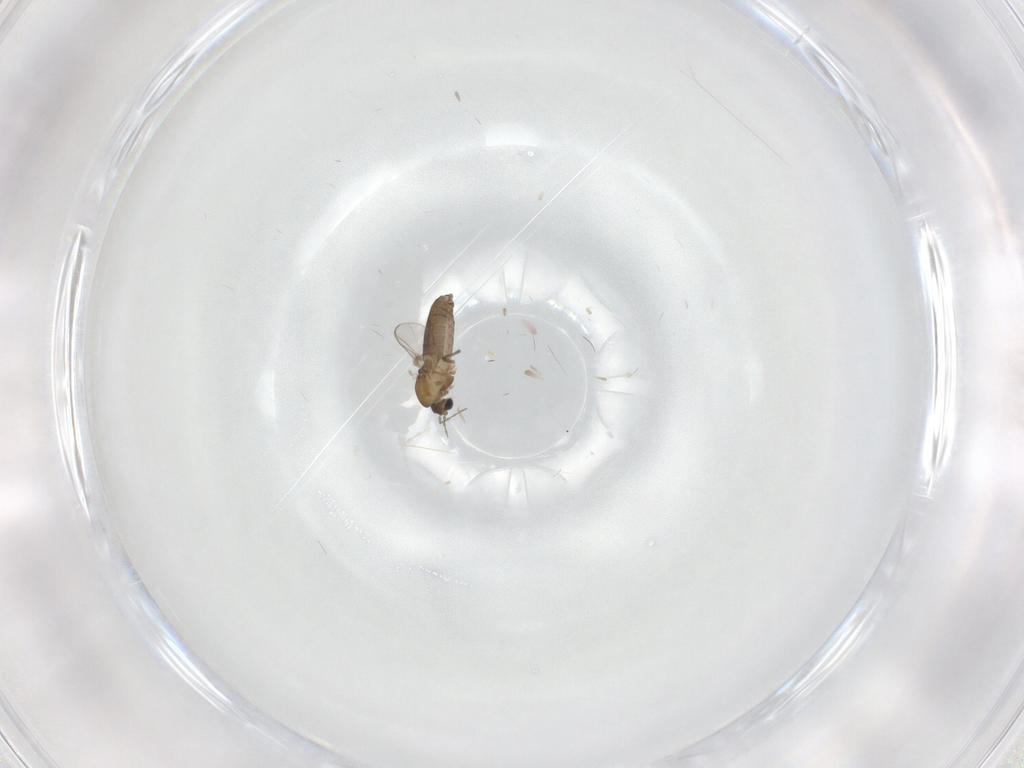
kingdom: Animalia
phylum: Arthropoda
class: Insecta
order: Diptera
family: Chironomidae
